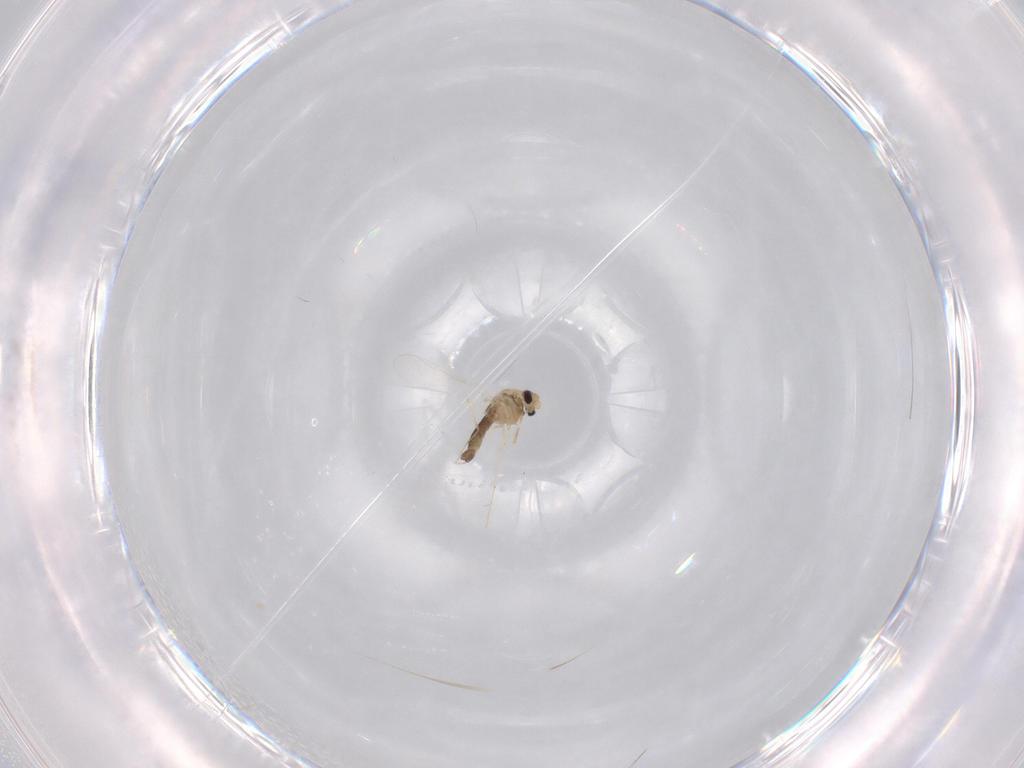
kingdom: Animalia
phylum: Arthropoda
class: Insecta
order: Diptera
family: Chironomidae
